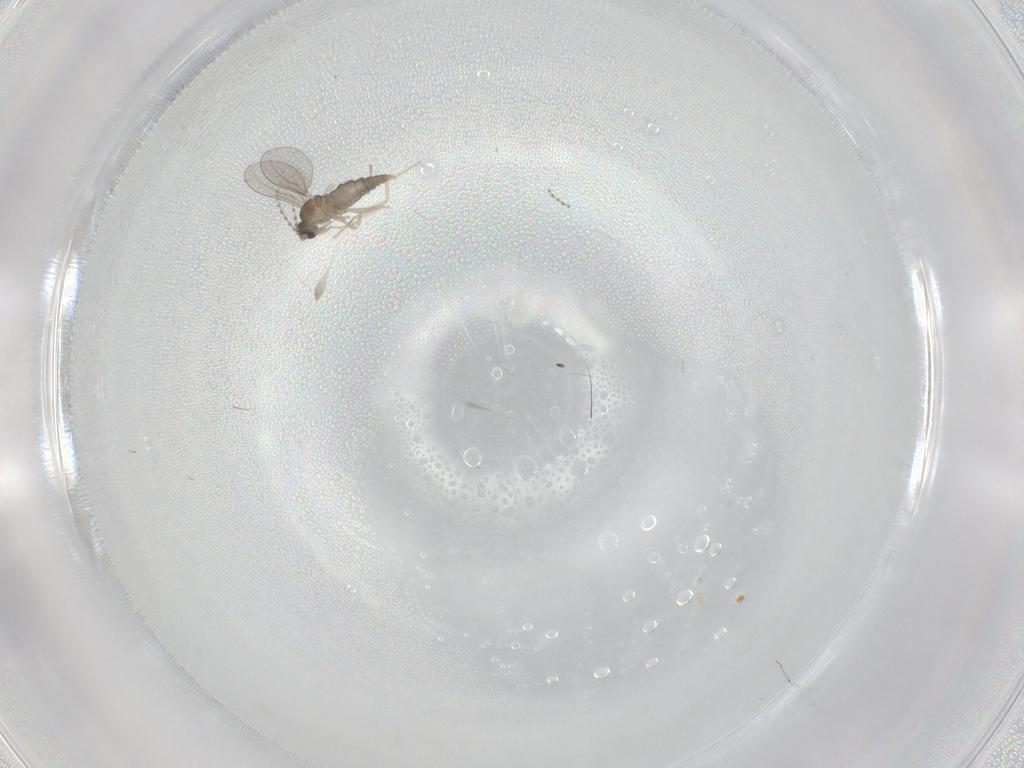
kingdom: Animalia
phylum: Arthropoda
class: Insecta
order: Diptera
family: Cecidomyiidae
